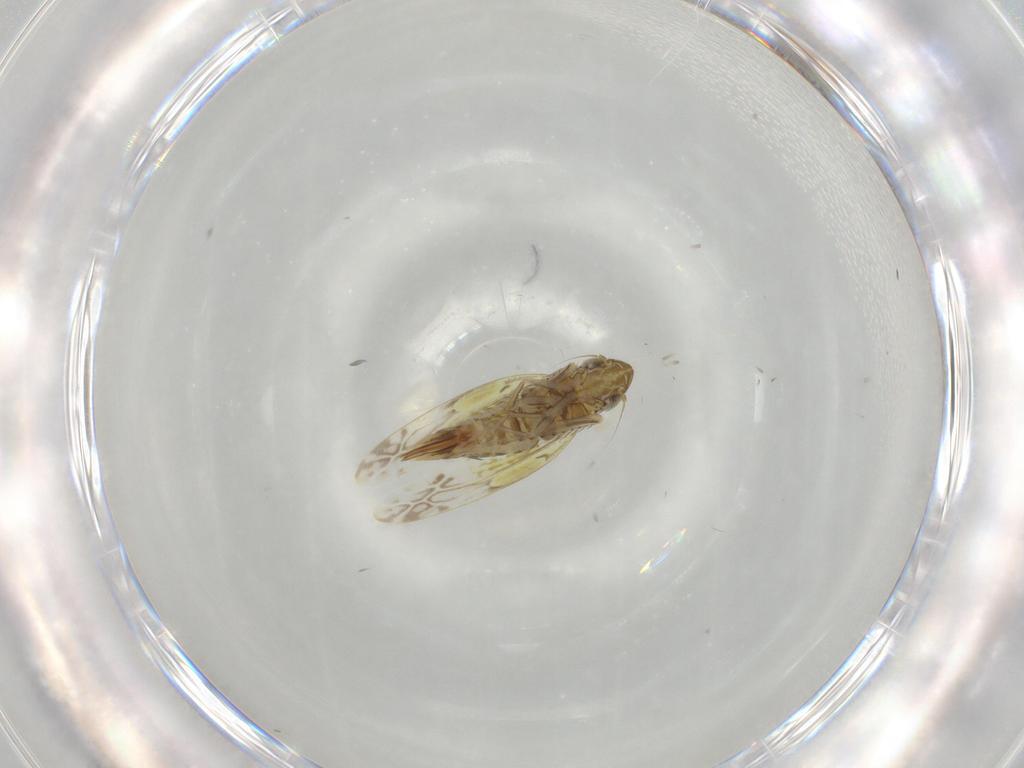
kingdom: Animalia
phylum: Arthropoda
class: Insecta
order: Hemiptera
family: Cicadellidae
